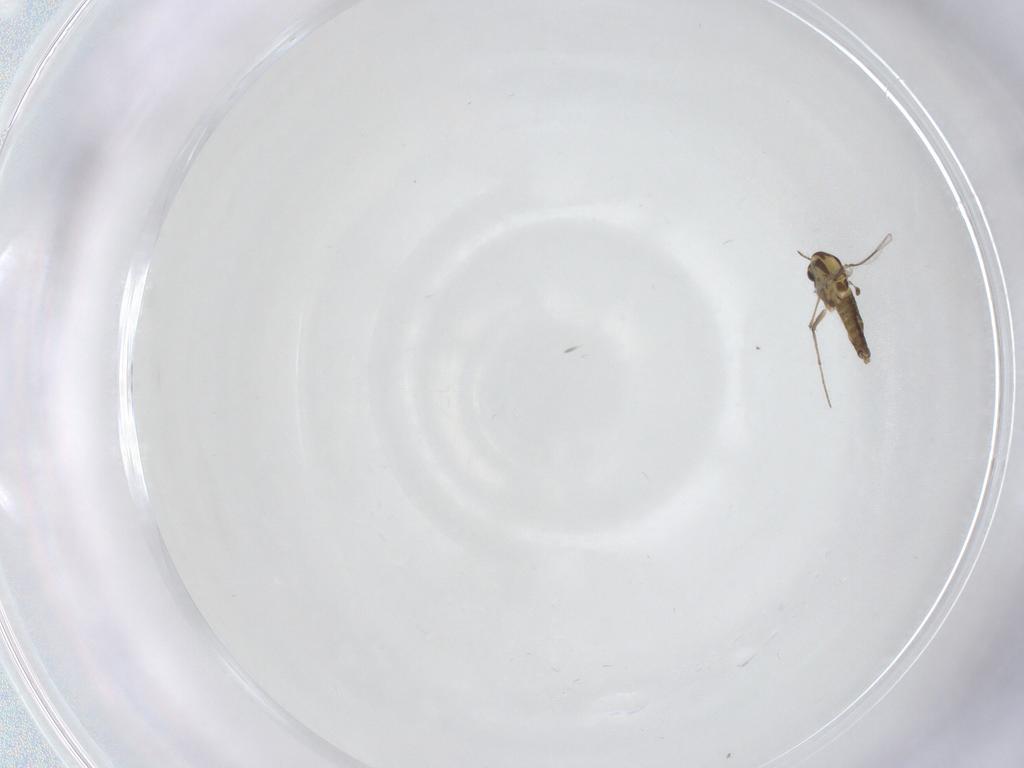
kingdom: Animalia
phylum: Arthropoda
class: Insecta
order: Diptera
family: Chironomidae
